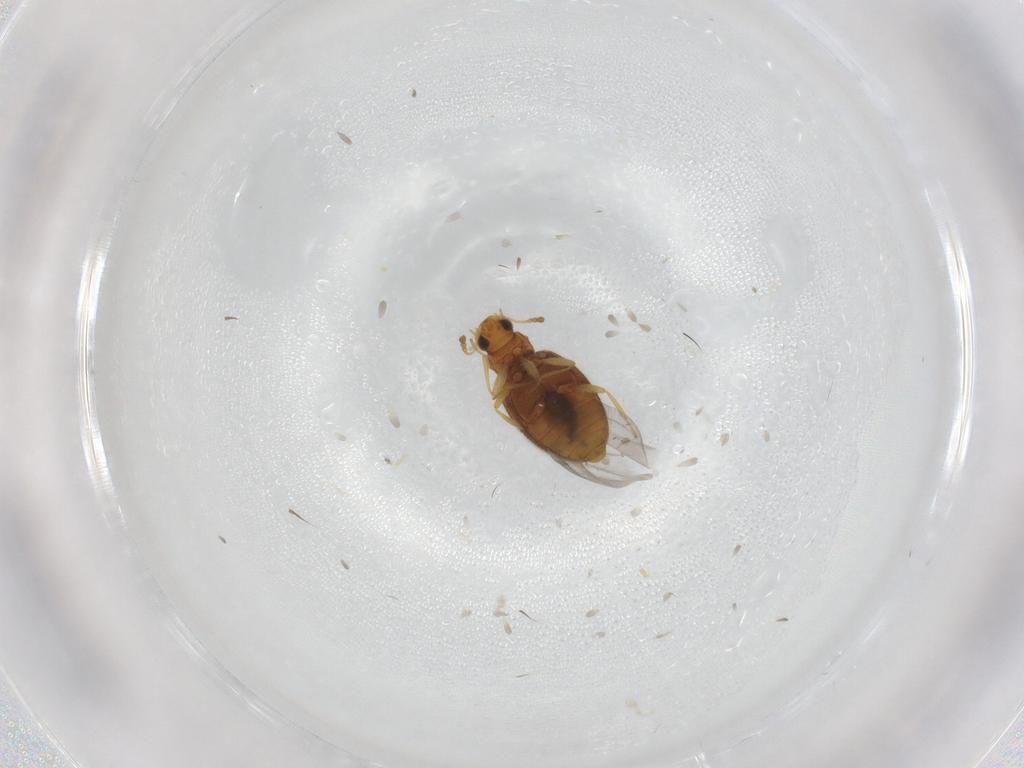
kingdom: Animalia
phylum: Arthropoda
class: Insecta
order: Coleoptera
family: Latridiidae
